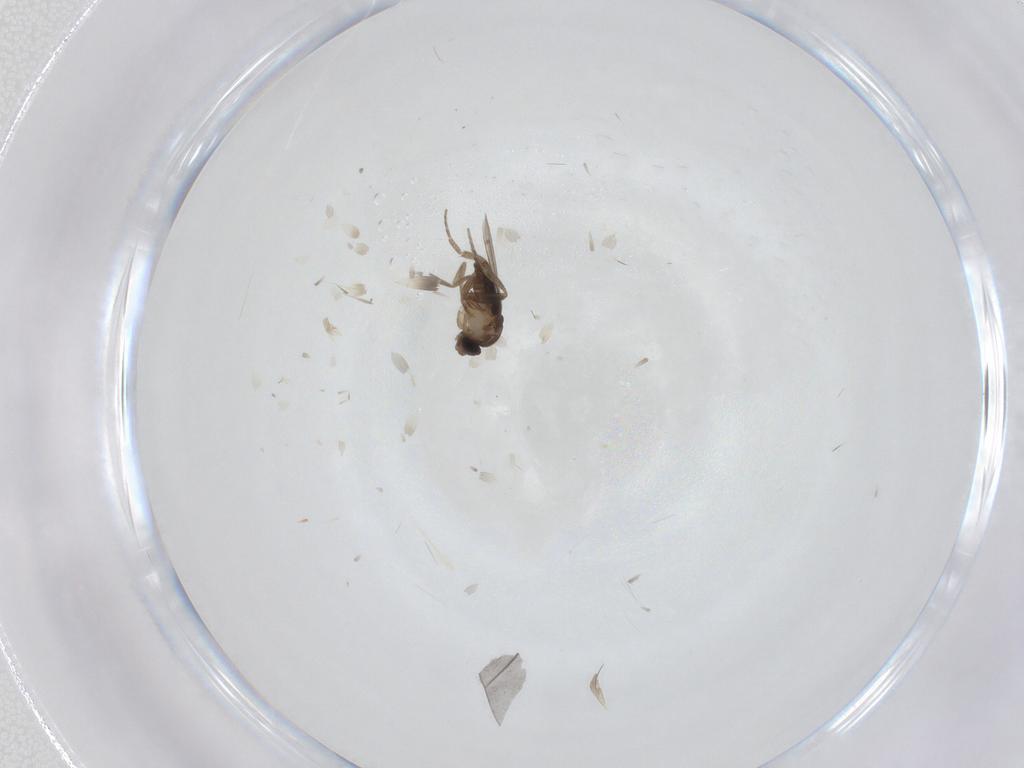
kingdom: Animalia
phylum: Arthropoda
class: Insecta
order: Diptera
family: Phoridae
